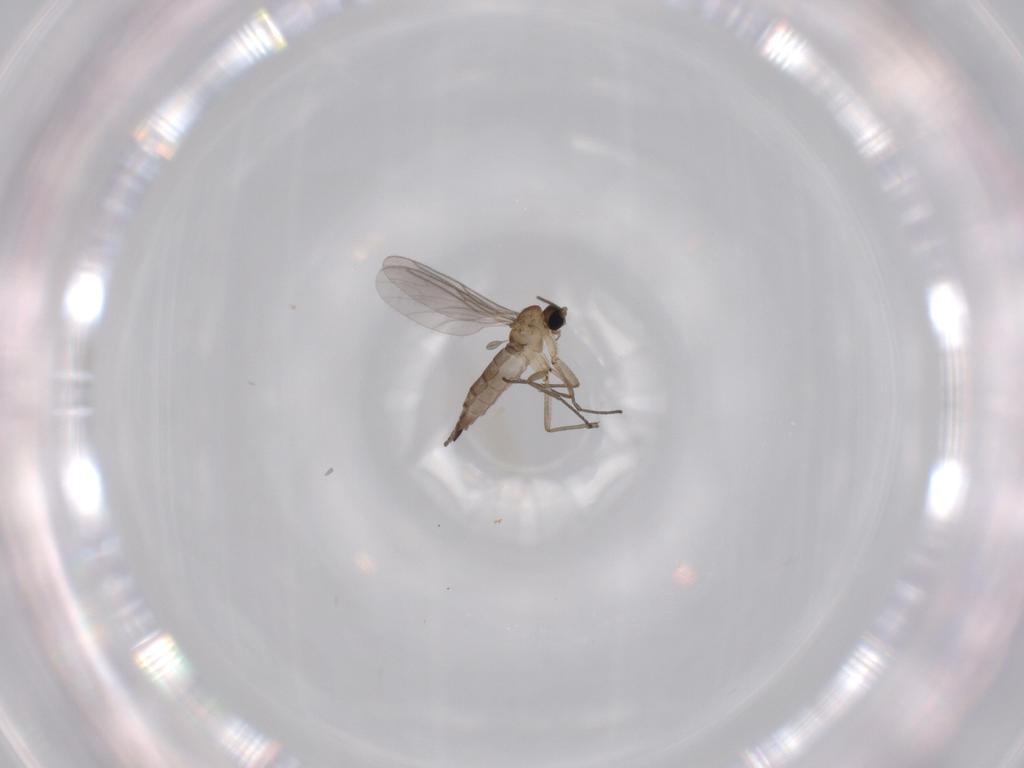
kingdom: Animalia
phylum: Arthropoda
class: Insecta
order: Diptera
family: Sciaridae
